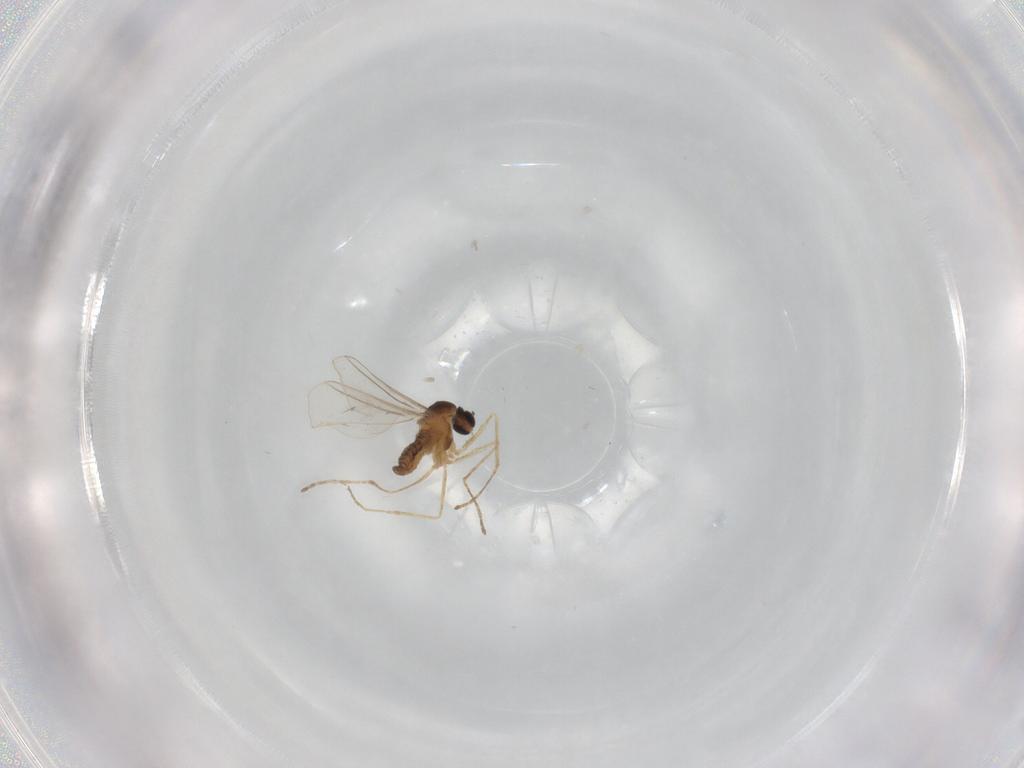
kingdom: Animalia
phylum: Arthropoda
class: Insecta
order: Diptera
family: Cecidomyiidae
